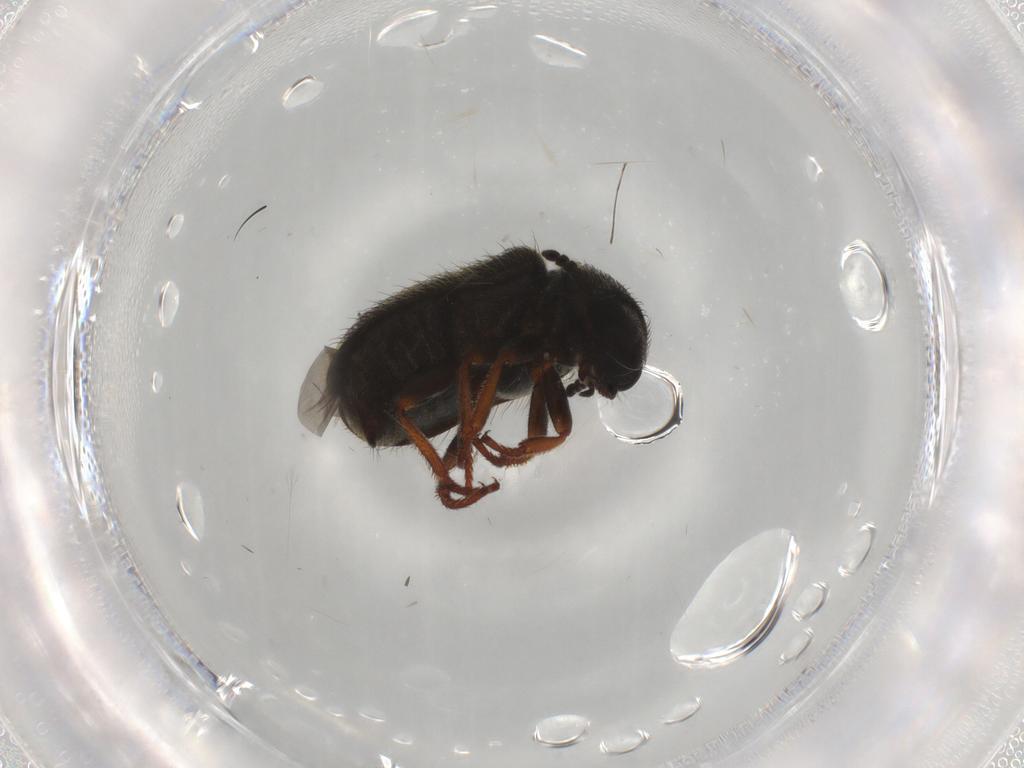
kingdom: Animalia
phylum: Arthropoda
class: Insecta
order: Coleoptera
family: Melyridae
